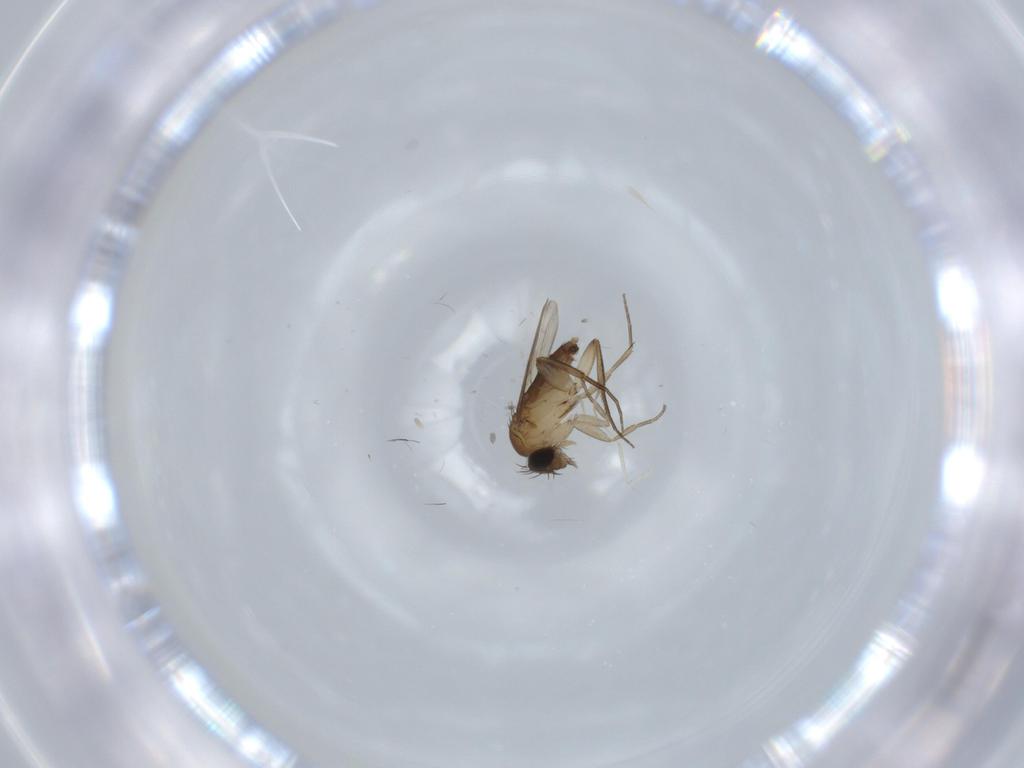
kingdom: Animalia
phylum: Arthropoda
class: Insecta
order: Diptera
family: Phoridae
